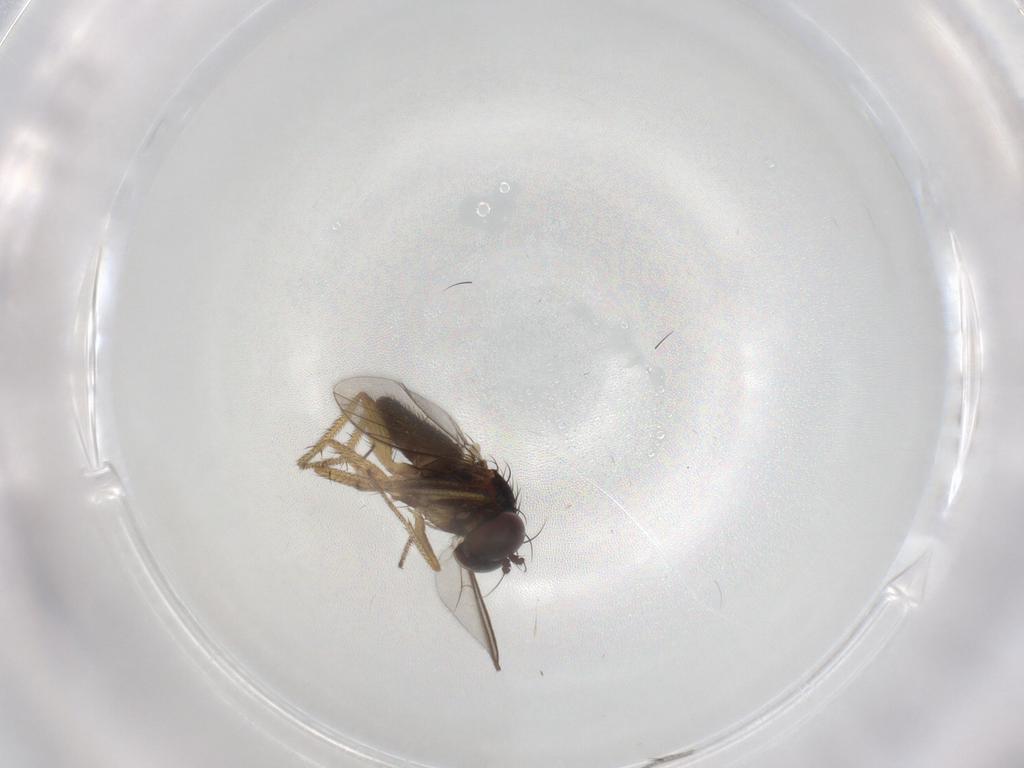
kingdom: Animalia
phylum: Arthropoda
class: Insecta
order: Diptera
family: Dolichopodidae
